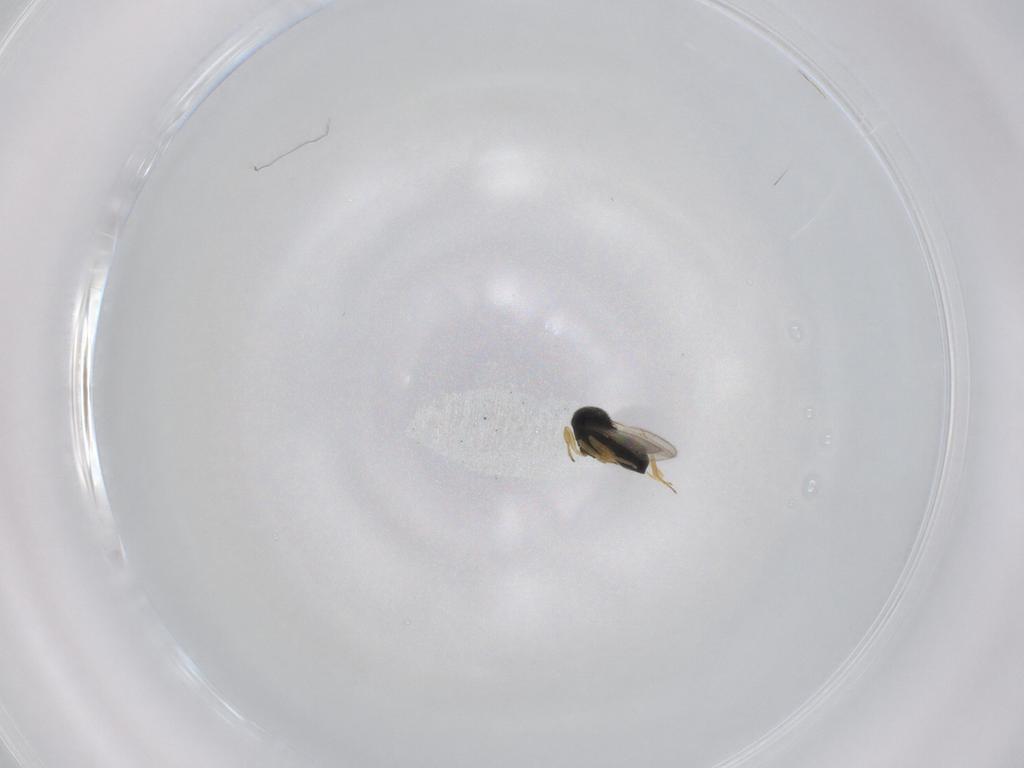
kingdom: Animalia
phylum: Arthropoda
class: Insecta
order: Hymenoptera
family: Scelionidae
